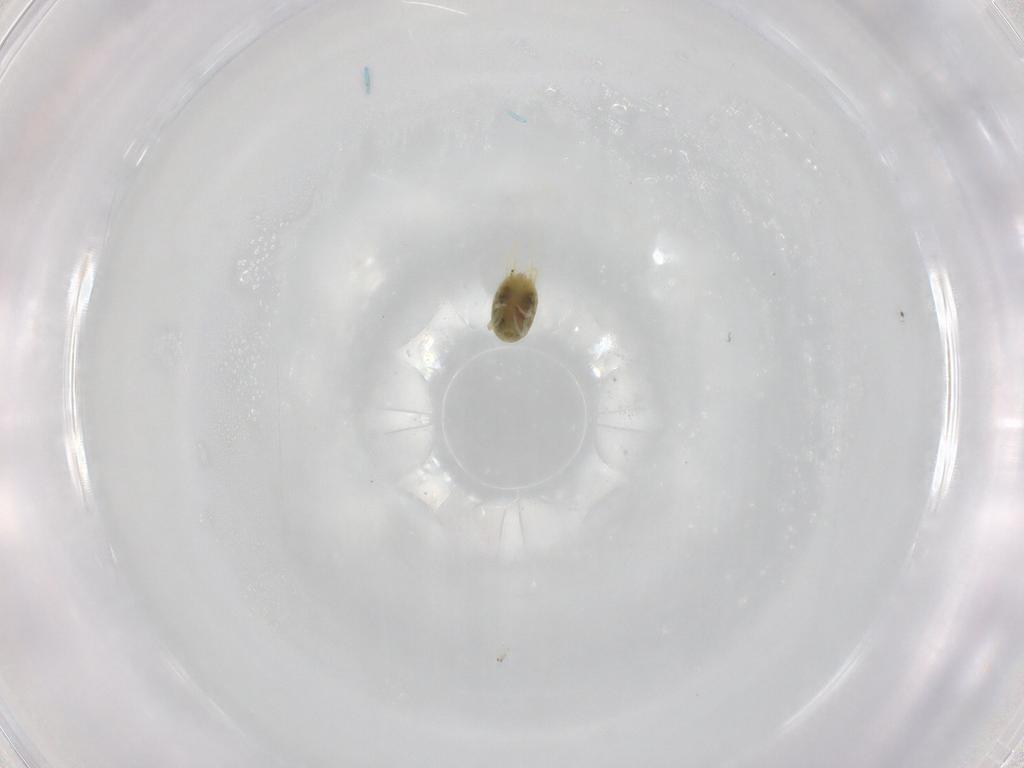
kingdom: Animalia
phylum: Arthropoda
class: Arachnida
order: Trombidiformes
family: Tetranychidae
